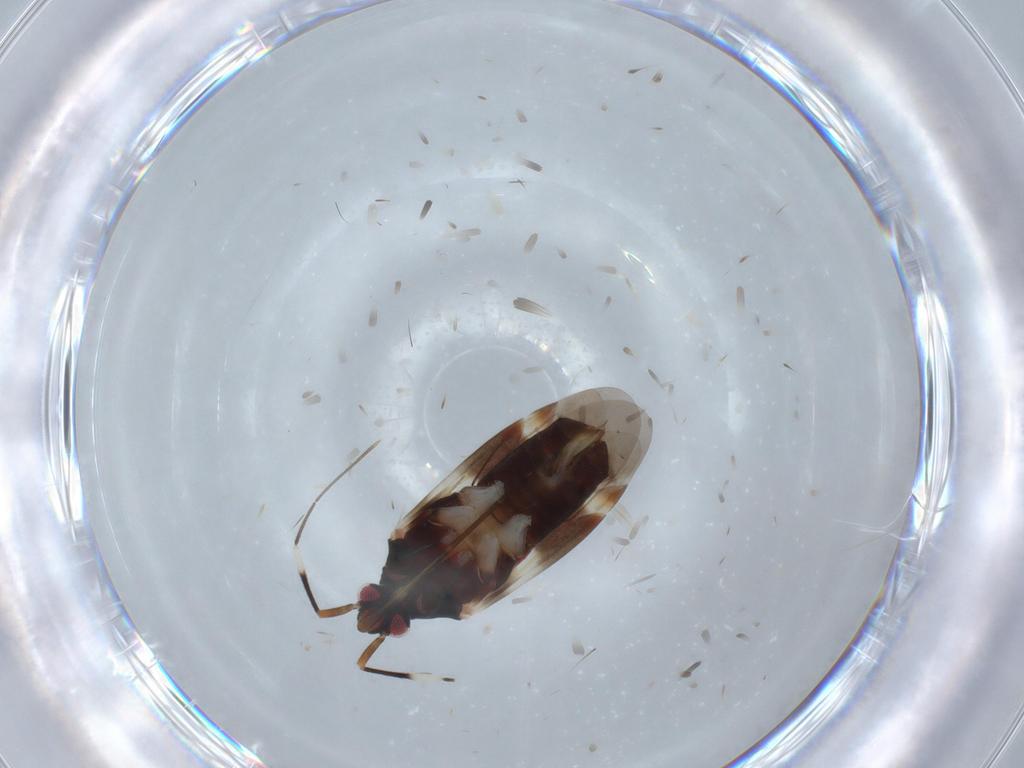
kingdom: Animalia
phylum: Arthropoda
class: Insecta
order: Hemiptera
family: Miridae
